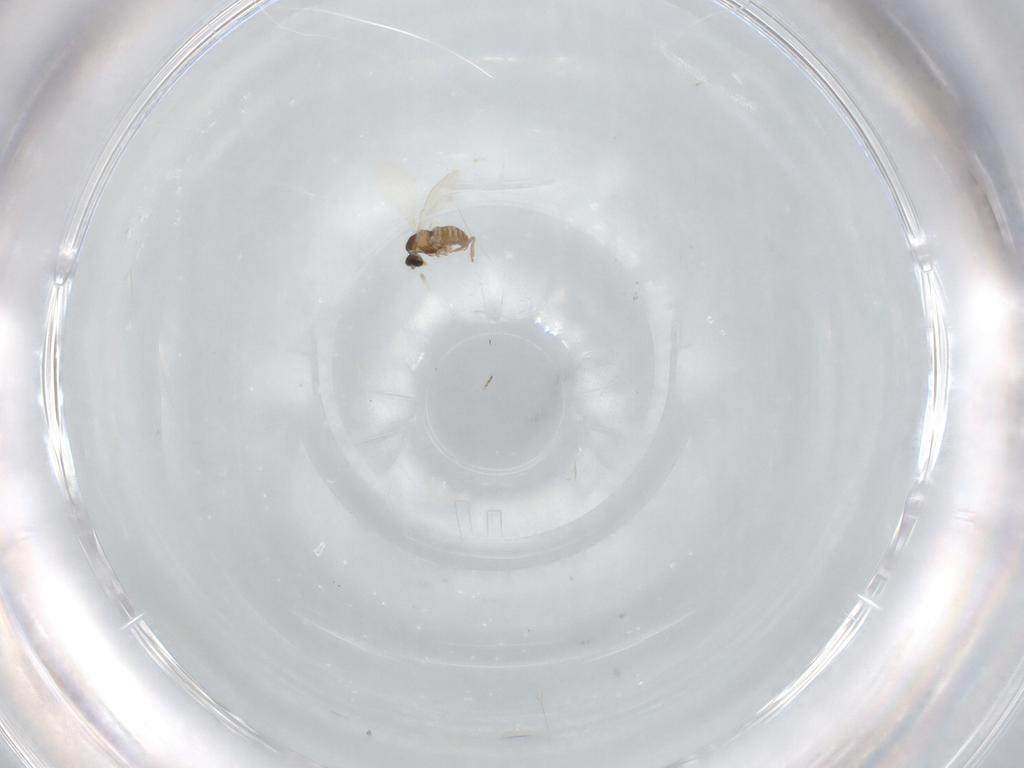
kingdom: Animalia
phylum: Arthropoda
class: Insecta
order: Diptera
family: Cecidomyiidae
